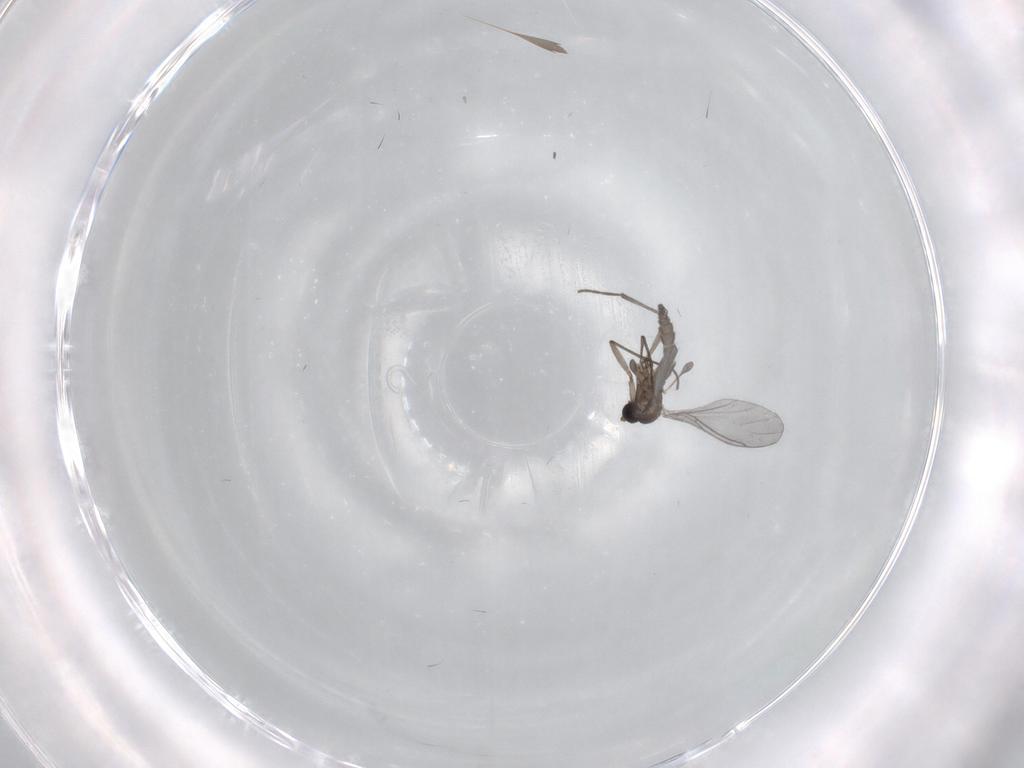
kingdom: Animalia
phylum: Arthropoda
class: Insecta
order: Diptera
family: Sciaridae
